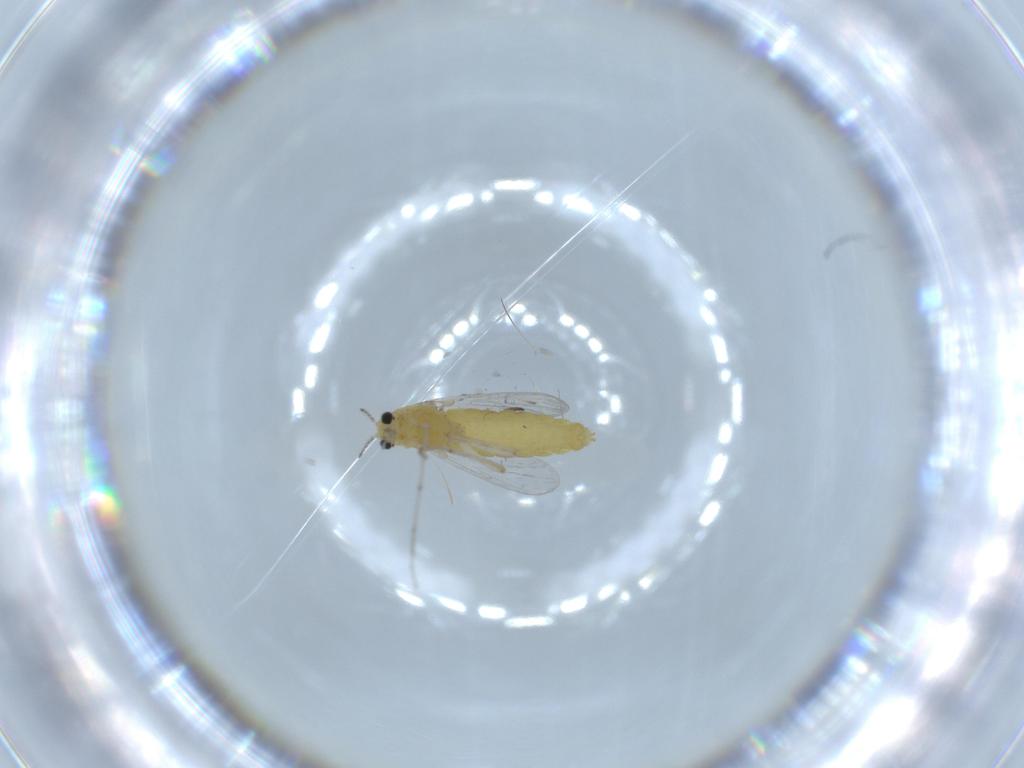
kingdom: Animalia
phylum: Arthropoda
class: Insecta
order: Diptera
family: Chironomidae
